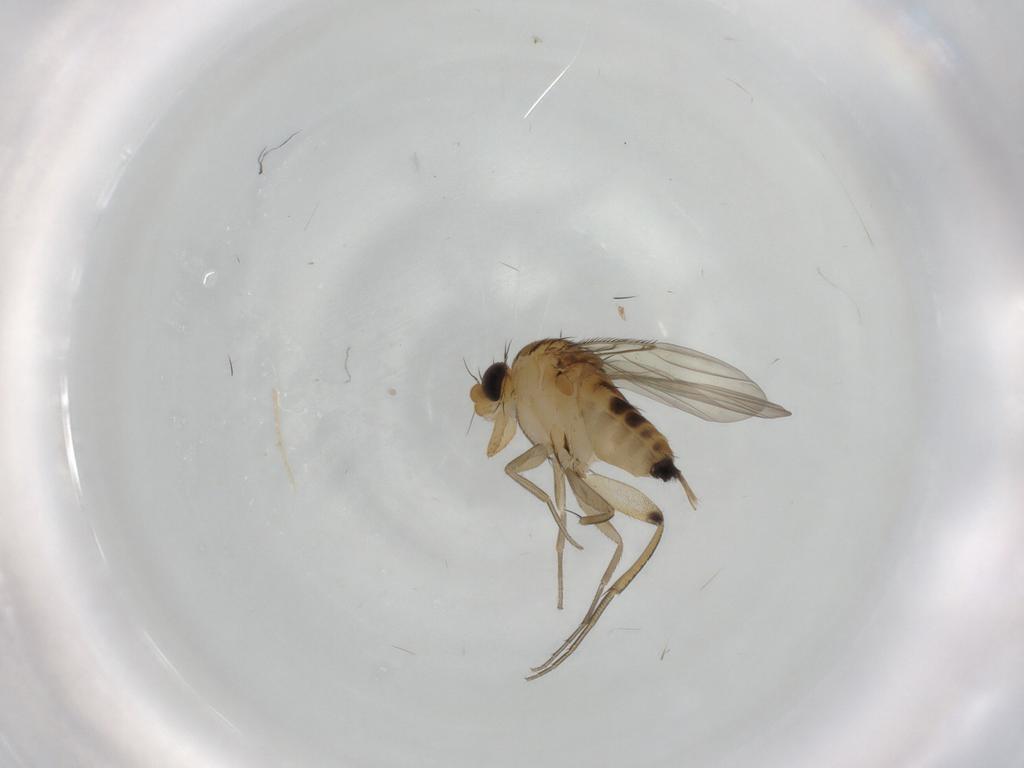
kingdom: Animalia
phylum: Arthropoda
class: Insecta
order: Diptera
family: Phoridae
